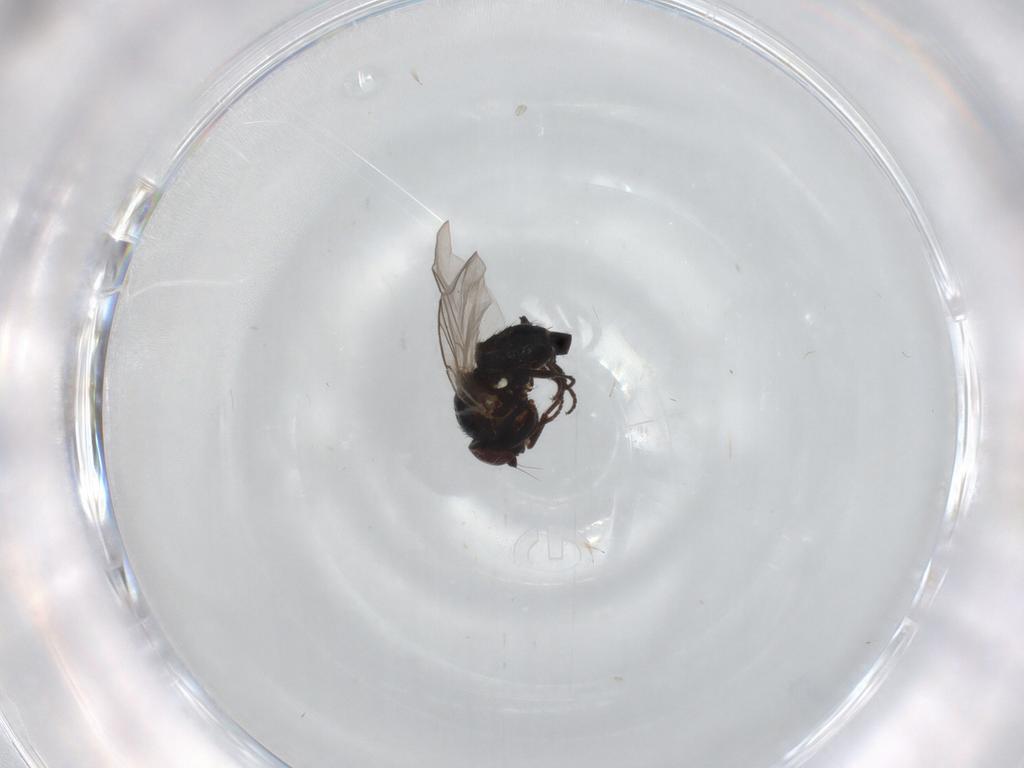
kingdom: Animalia
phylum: Arthropoda
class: Insecta
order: Diptera
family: Agromyzidae
